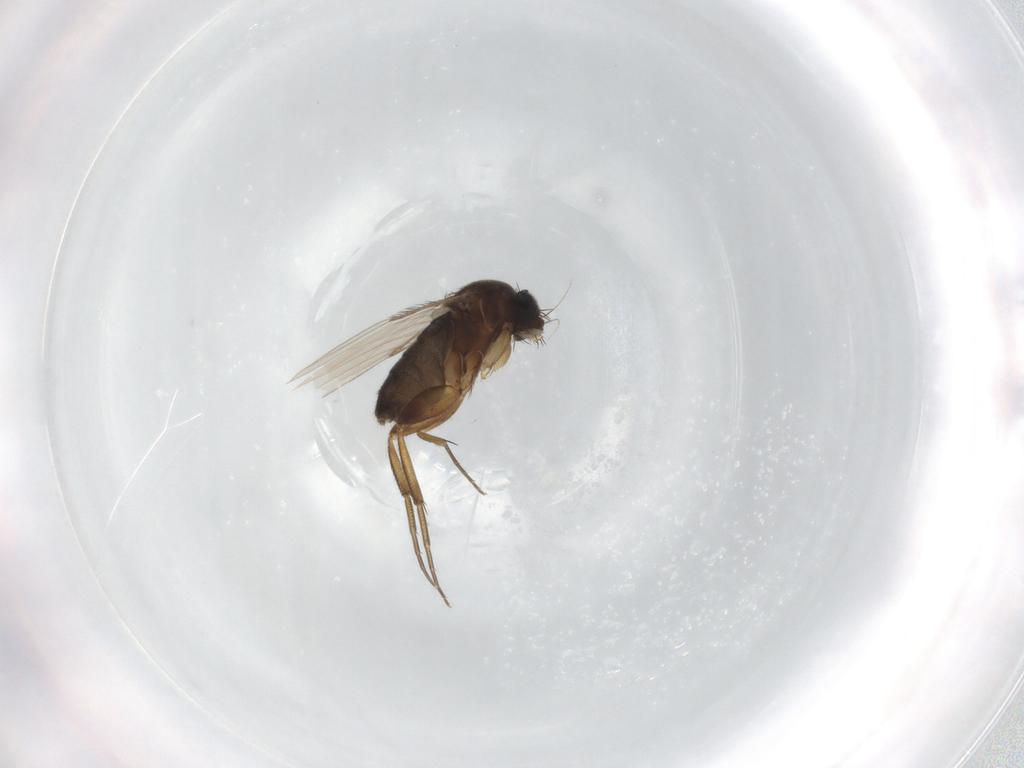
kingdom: Animalia
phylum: Arthropoda
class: Insecta
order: Diptera
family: Phoridae
